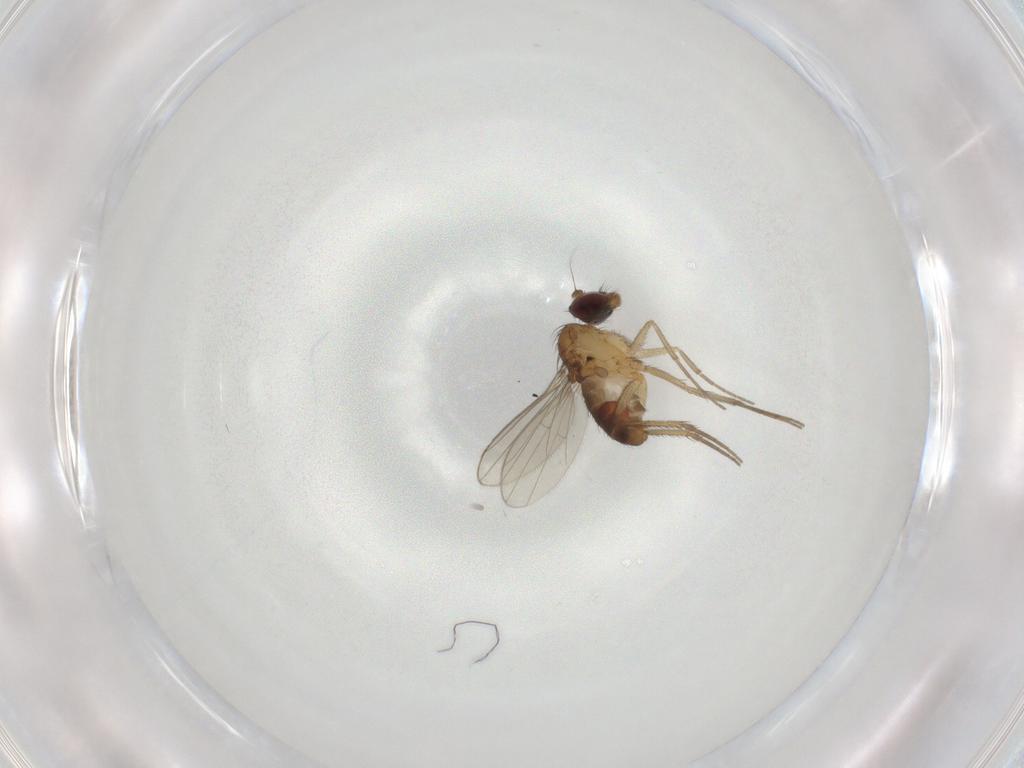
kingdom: Animalia
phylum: Arthropoda
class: Insecta
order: Diptera
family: Dolichopodidae
